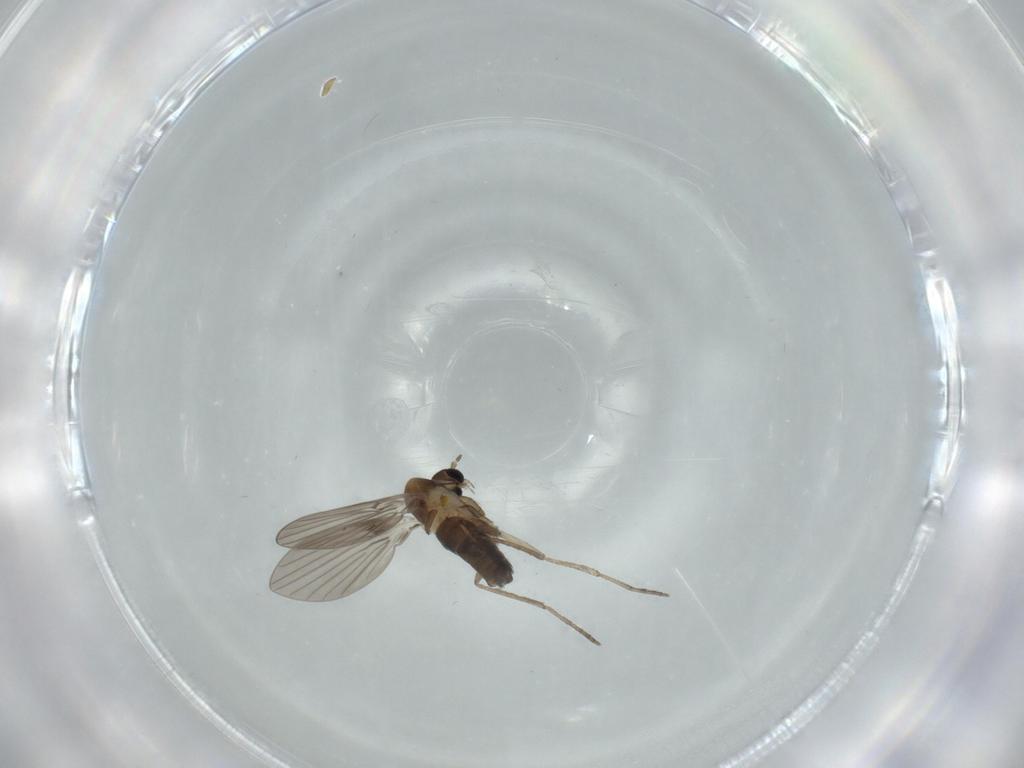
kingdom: Animalia
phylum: Arthropoda
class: Insecta
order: Diptera
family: Psychodidae
